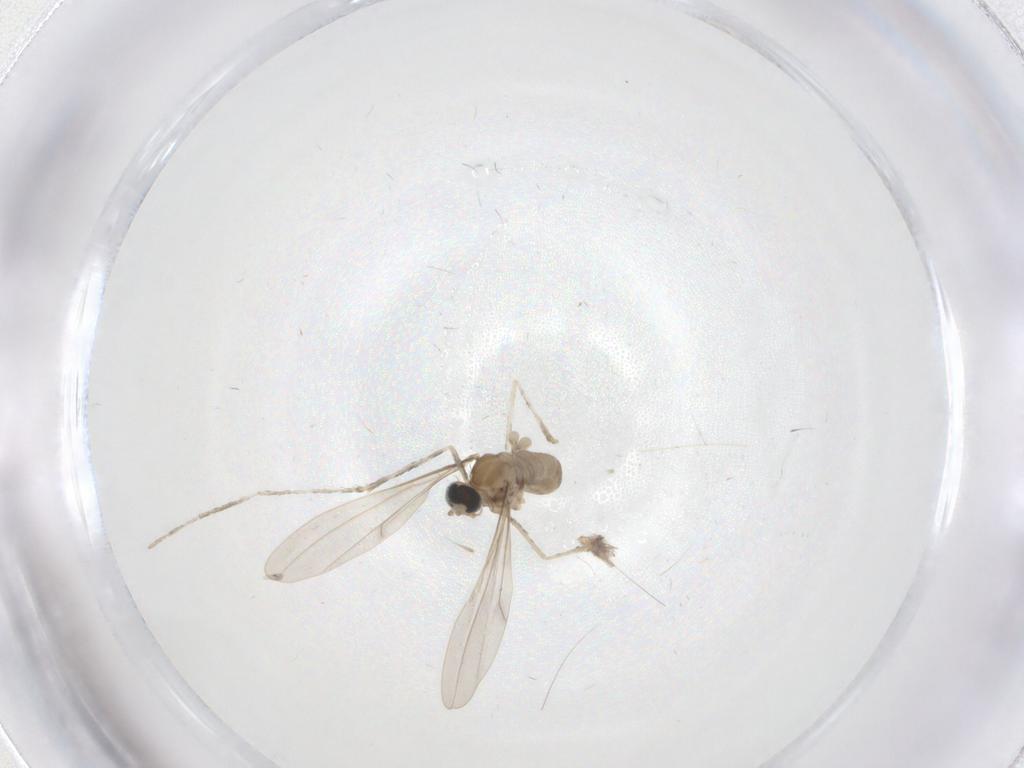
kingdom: Animalia
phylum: Arthropoda
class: Insecta
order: Diptera
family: Cecidomyiidae
